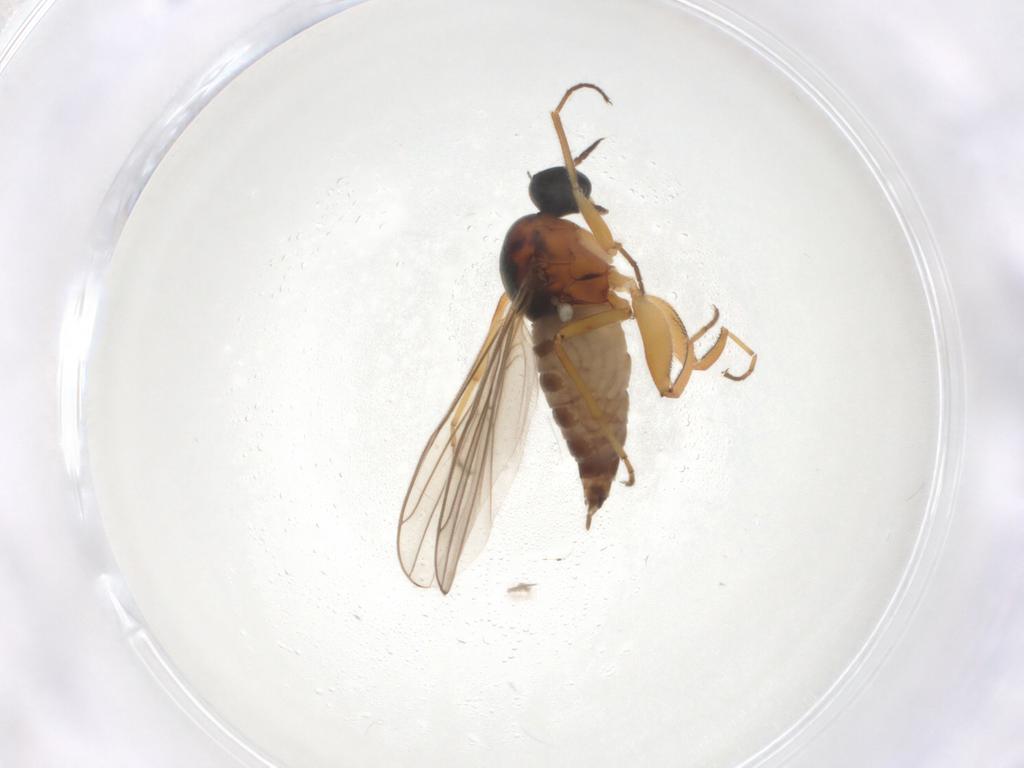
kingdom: Animalia
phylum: Arthropoda
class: Insecta
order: Diptera
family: Hybotidae
